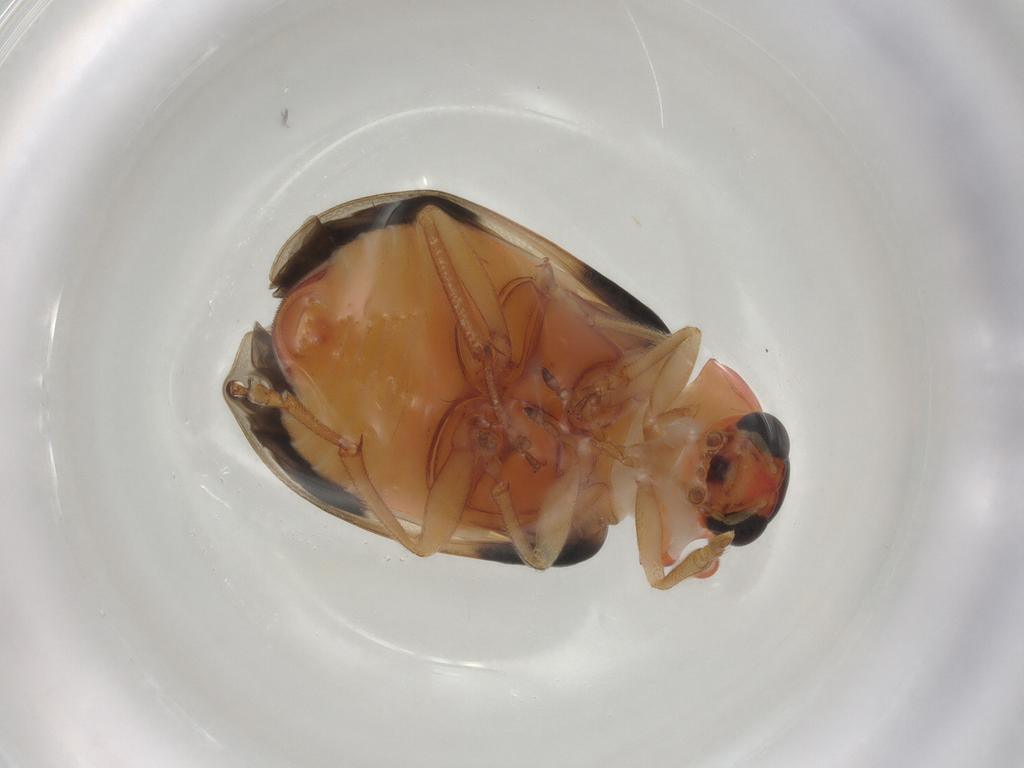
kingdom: Animalia
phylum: Arthropoda
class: Insecta
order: Coleoptera
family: Chrysomelidae
